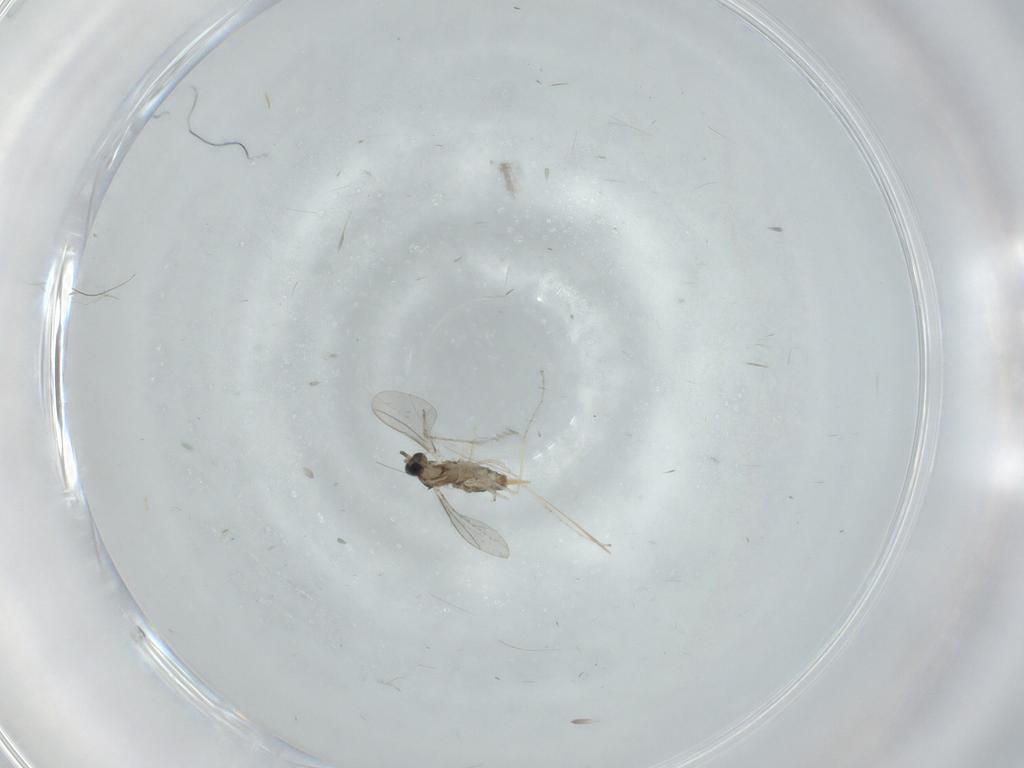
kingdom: Animalia
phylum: Arthropoda
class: Insecta
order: Diptera
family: Cecidomyiidae
